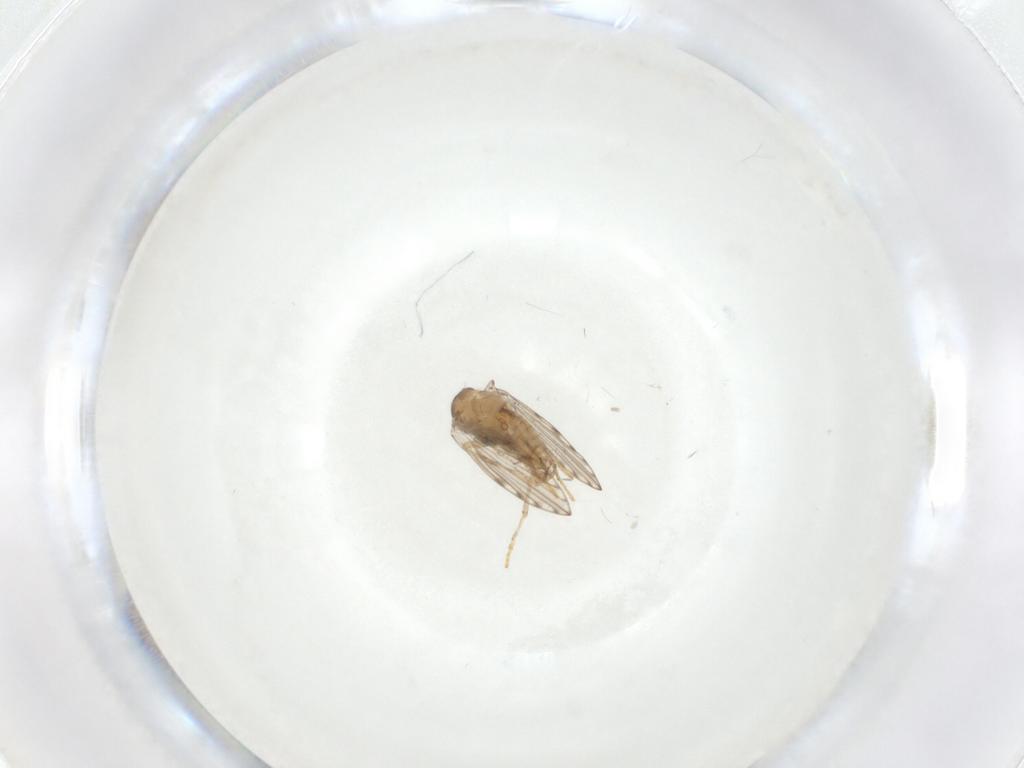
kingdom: Animalia
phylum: Arthropoda
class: Insecta
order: Diptera
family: Psychodidae
